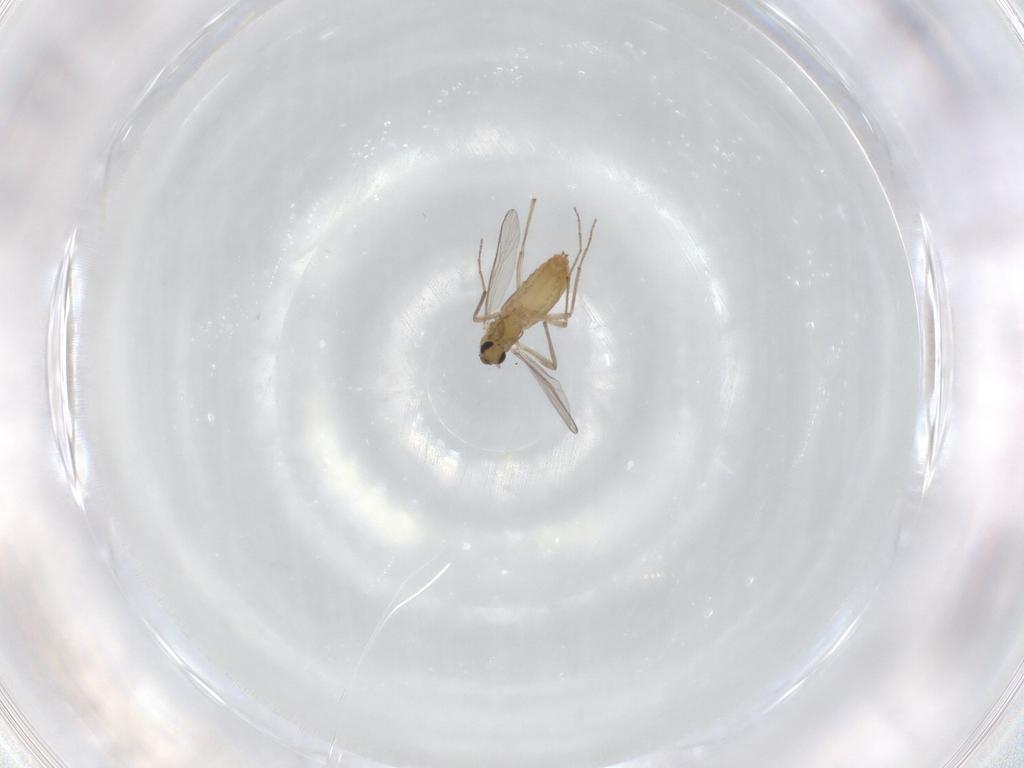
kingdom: Animalia
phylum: Arthropoda
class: Insecta
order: Diptera
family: Chironomidae
